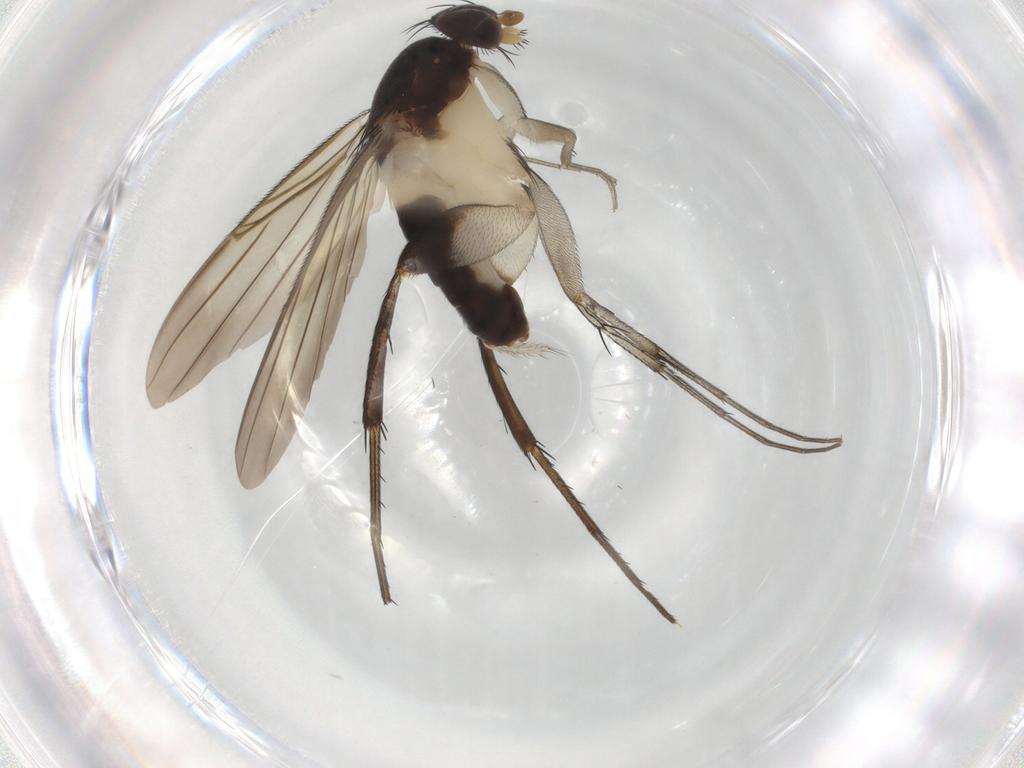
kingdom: Animalia
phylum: Arthropoda
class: Insecta
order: Diptera
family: Phoridae
